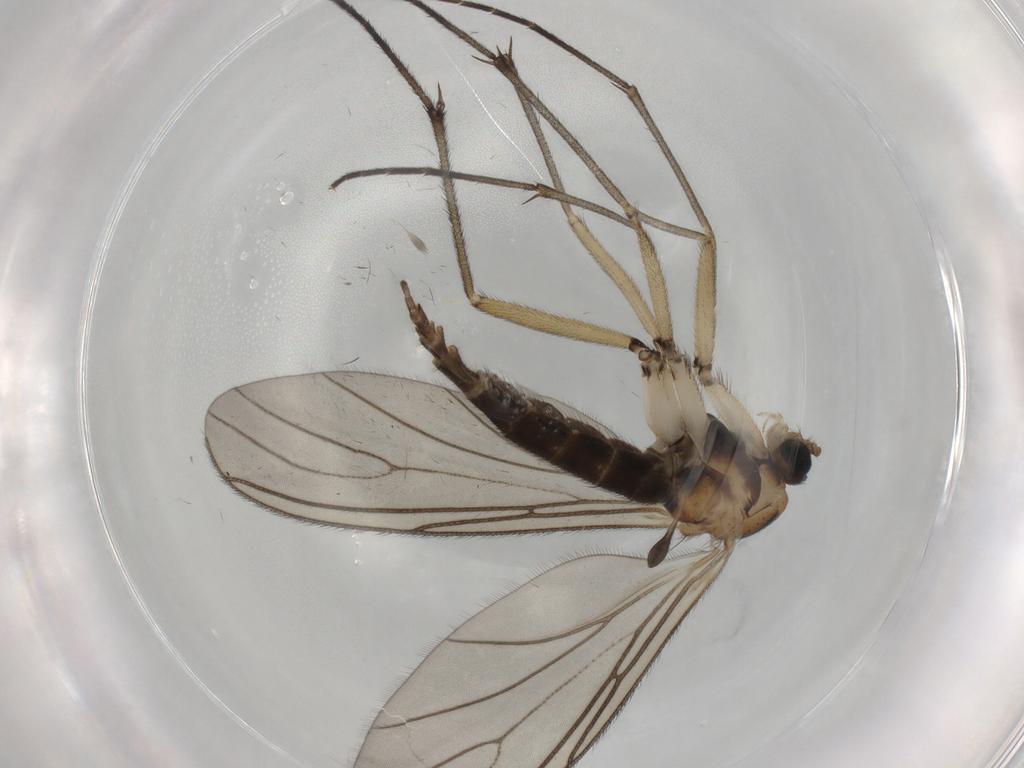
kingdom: Animalia
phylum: Arthropoda
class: Insecta
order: Diptera
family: Sciaridae
